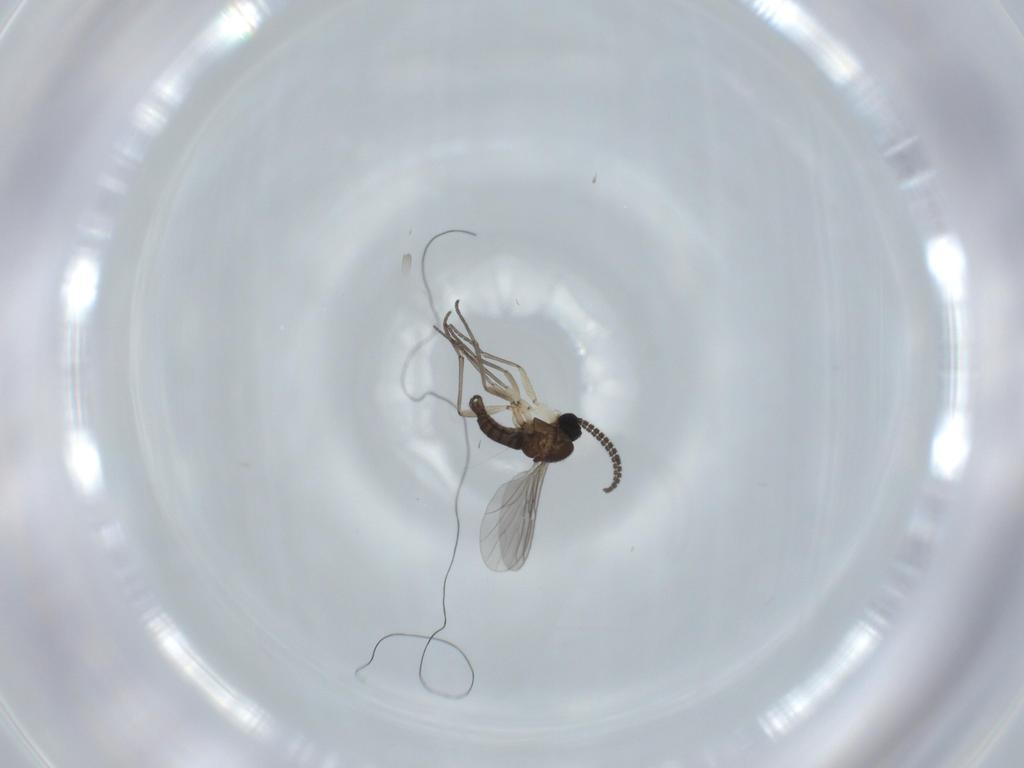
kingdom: Animalia
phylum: Arthropoda
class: Insecta
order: Diptera
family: Sciaridae
